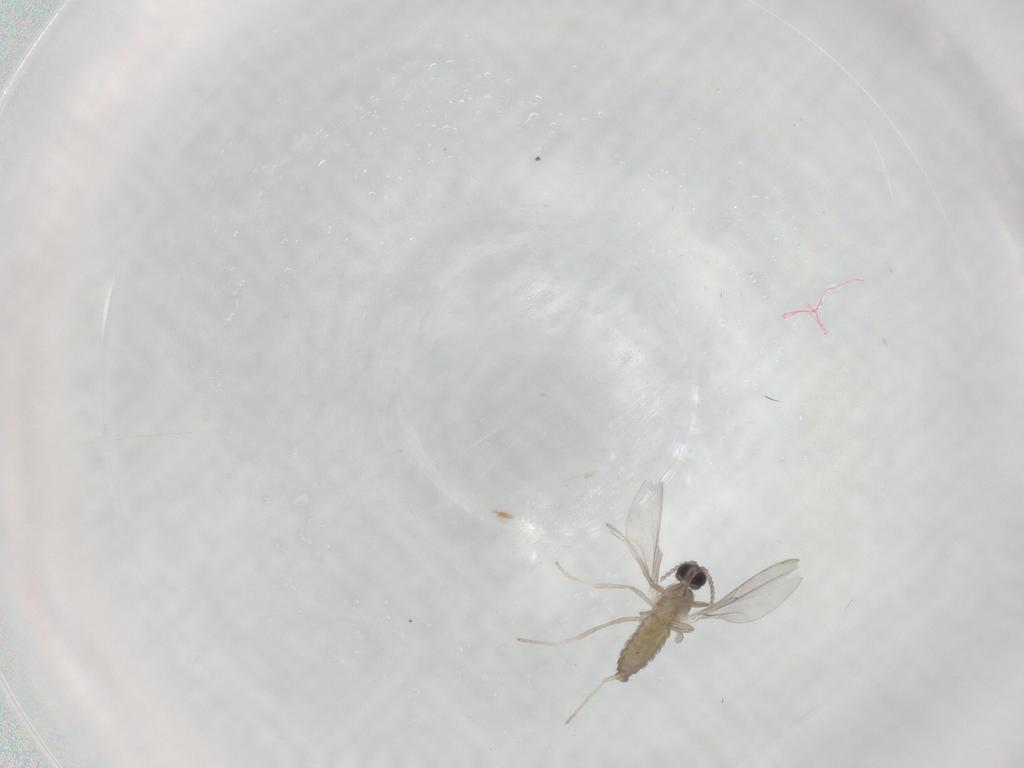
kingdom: Animalia
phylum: Arthropoda
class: Insecta
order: Diptera
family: Cecidomyiidae
